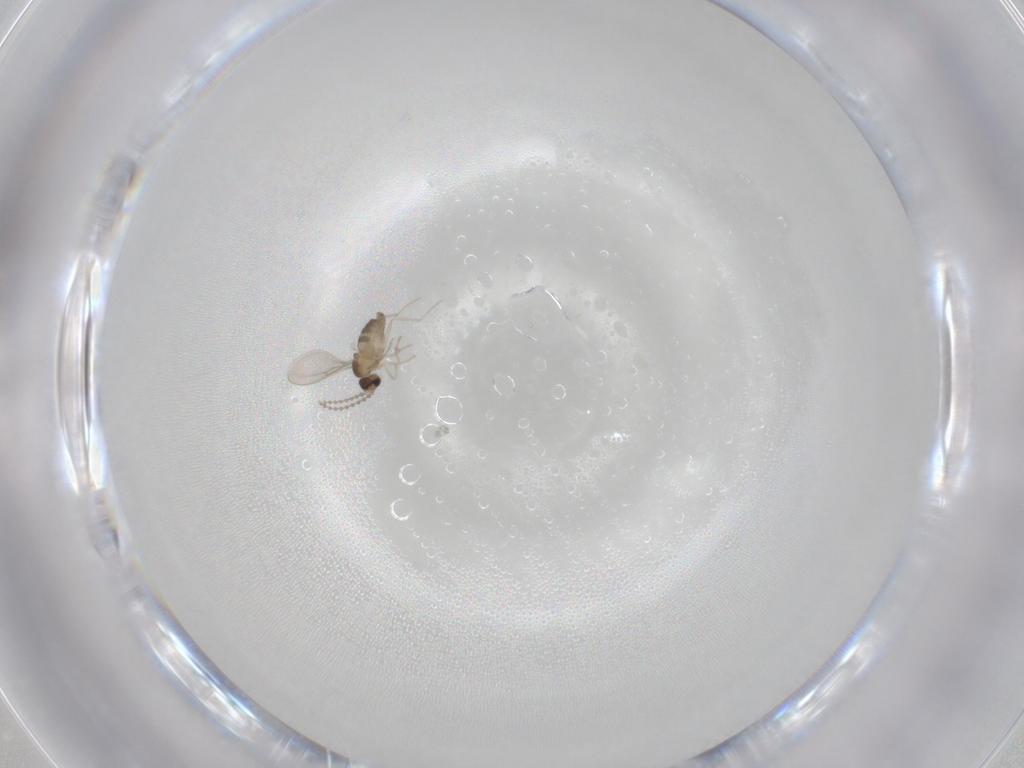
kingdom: Animalia
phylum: Arthropoda
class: Insecta
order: Diptera
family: Cecidomyiidae
